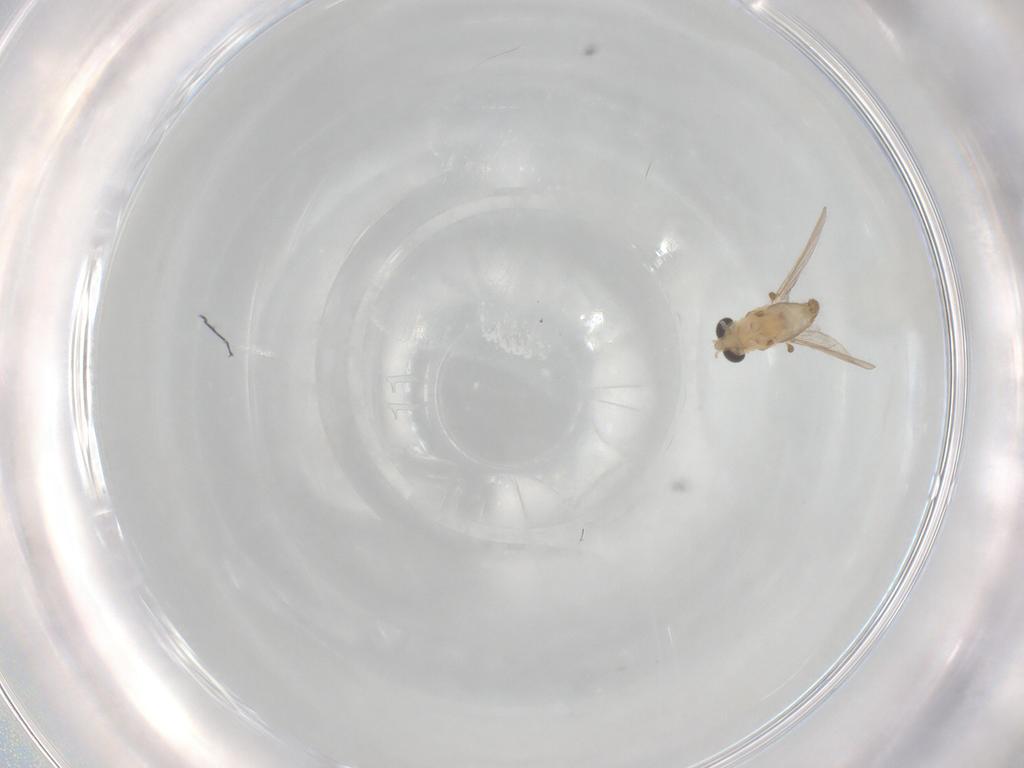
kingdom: Animalia
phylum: Arthropoda
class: Insecta
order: Diptera
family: Chironomidae
